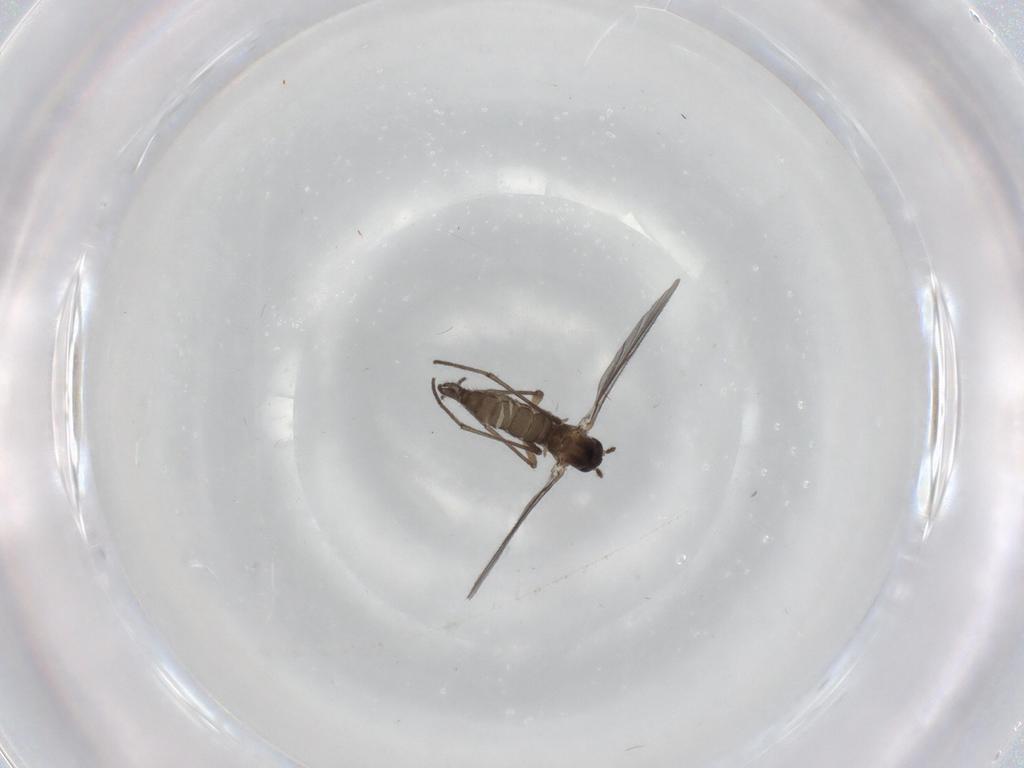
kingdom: Animalia
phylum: Arthropoda
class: Insecta
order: Diptera
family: Sciaridae
